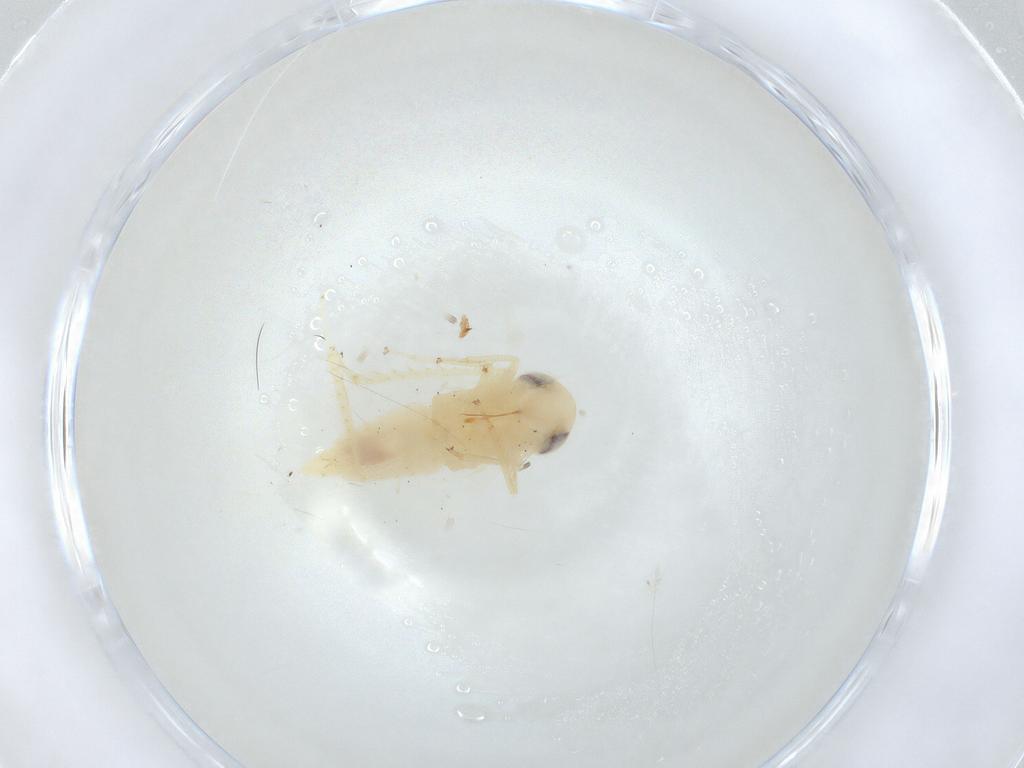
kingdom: Animalia
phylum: Arthropoda
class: Insecta
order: Hemiptera
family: Cicadellidae
